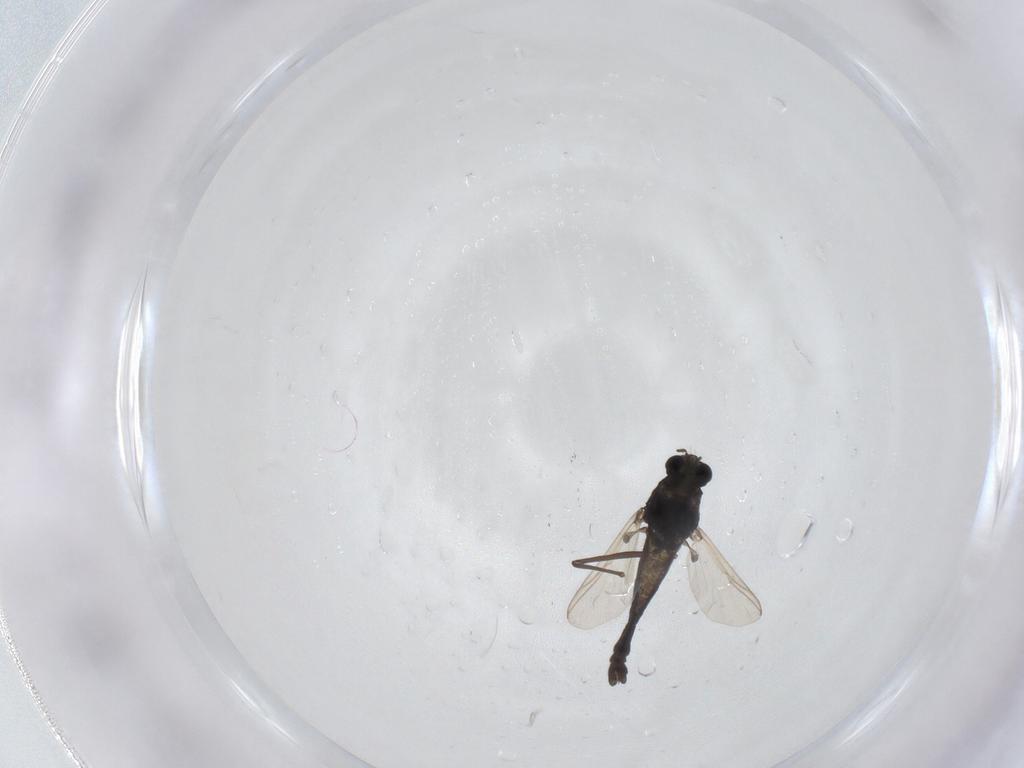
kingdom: Animalia
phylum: Arthropoda
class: Insecta
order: Diptera
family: Chironomidae
